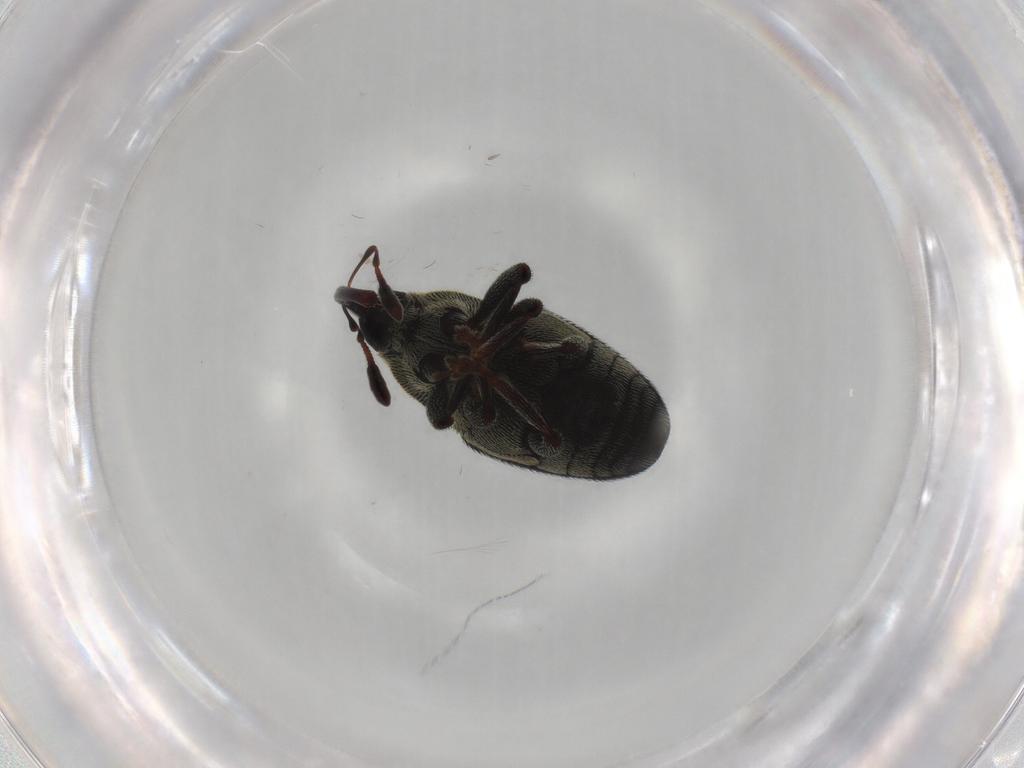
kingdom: Animalia
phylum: Arthropoda
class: Insecta
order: Coleoptera
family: Curculionidae
